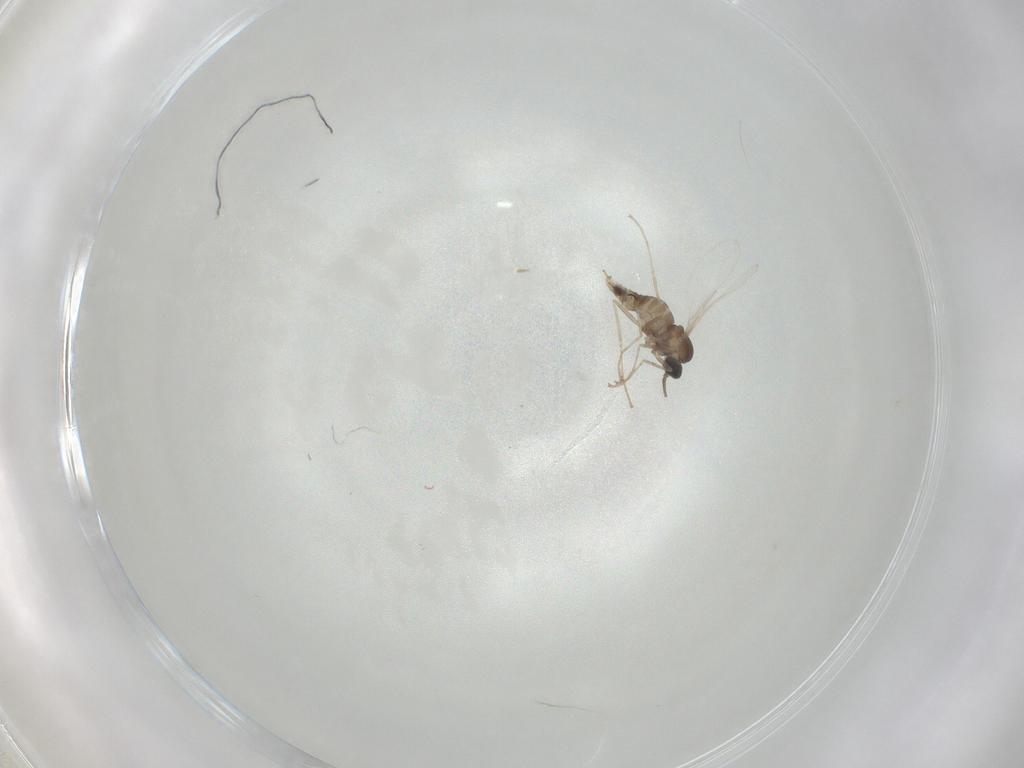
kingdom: Animalia
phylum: Arthropoda
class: Insecta
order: Diptera
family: Cecidomyiidae
